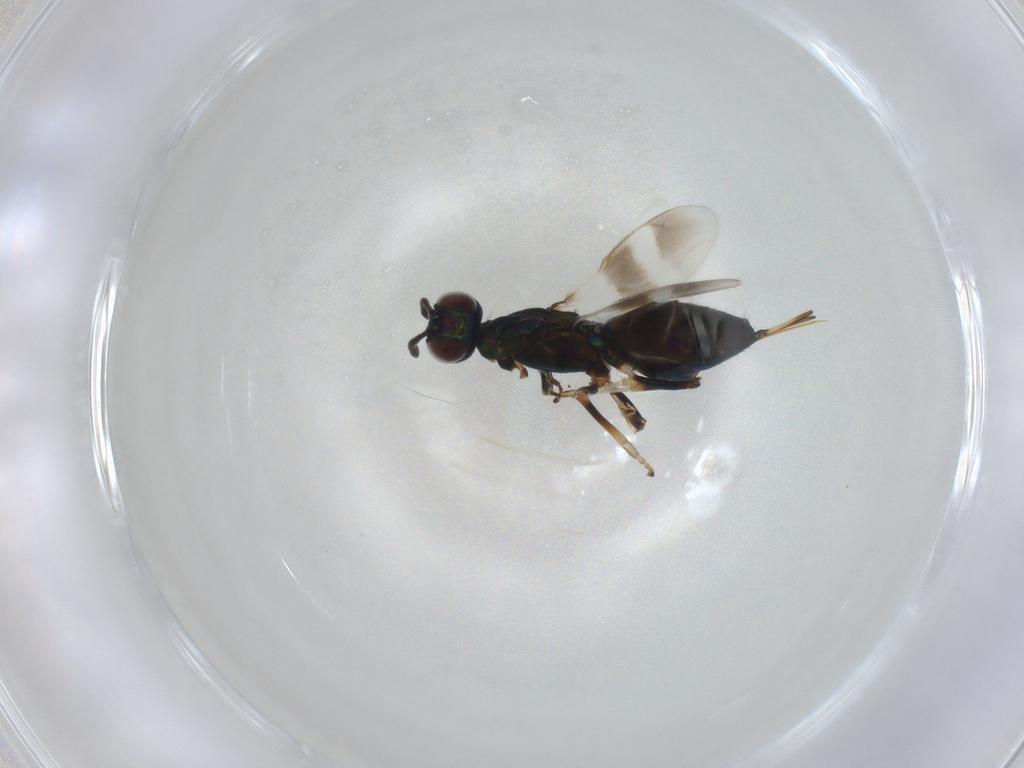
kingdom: Animalia
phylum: Arthropoda
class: Insecta
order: Hymenoptera
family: Eupelmidae
